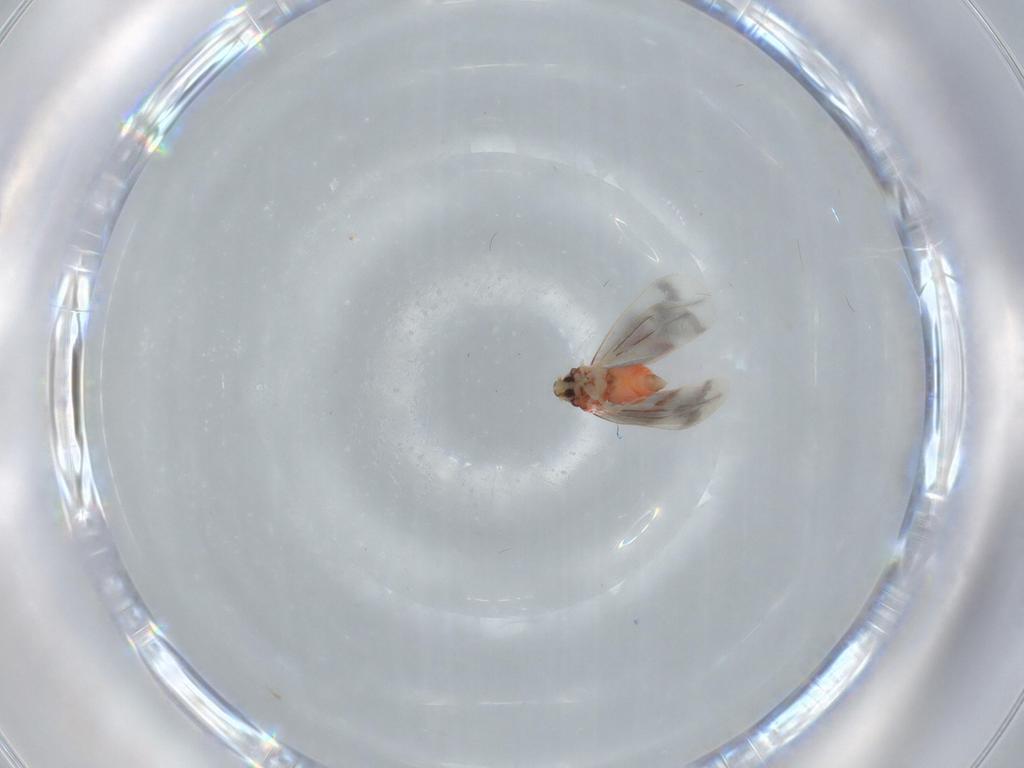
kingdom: Animalia
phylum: Arthropoda
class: Insecta
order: Hemiptera
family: Aleyrodidae
